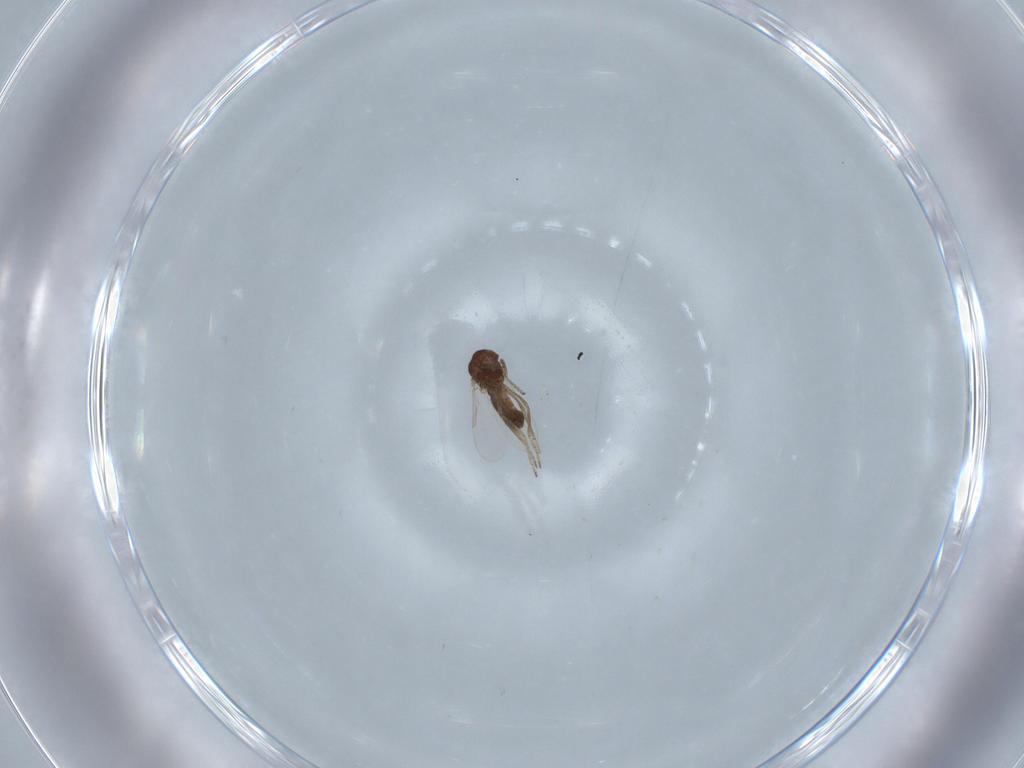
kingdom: Animalia
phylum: Arthropoda
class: Insecta
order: Diptera
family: Ceratopogonidae
